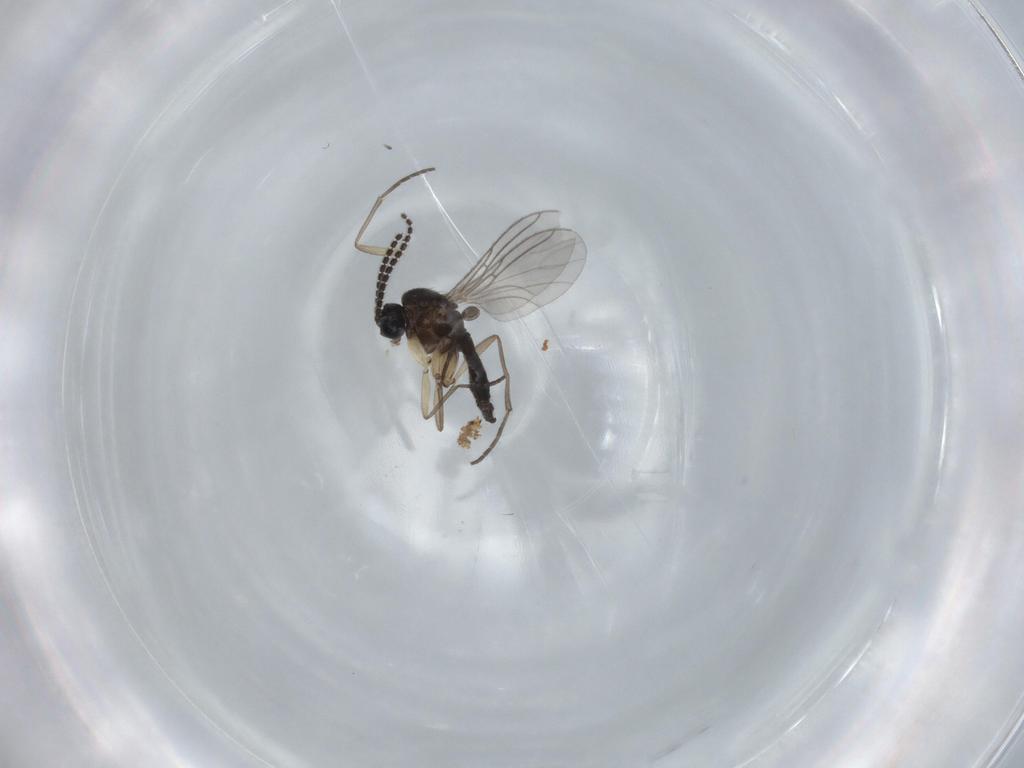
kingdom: Animalia
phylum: Arthropoda
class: Insecta
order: Diptera
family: Sciaridae
